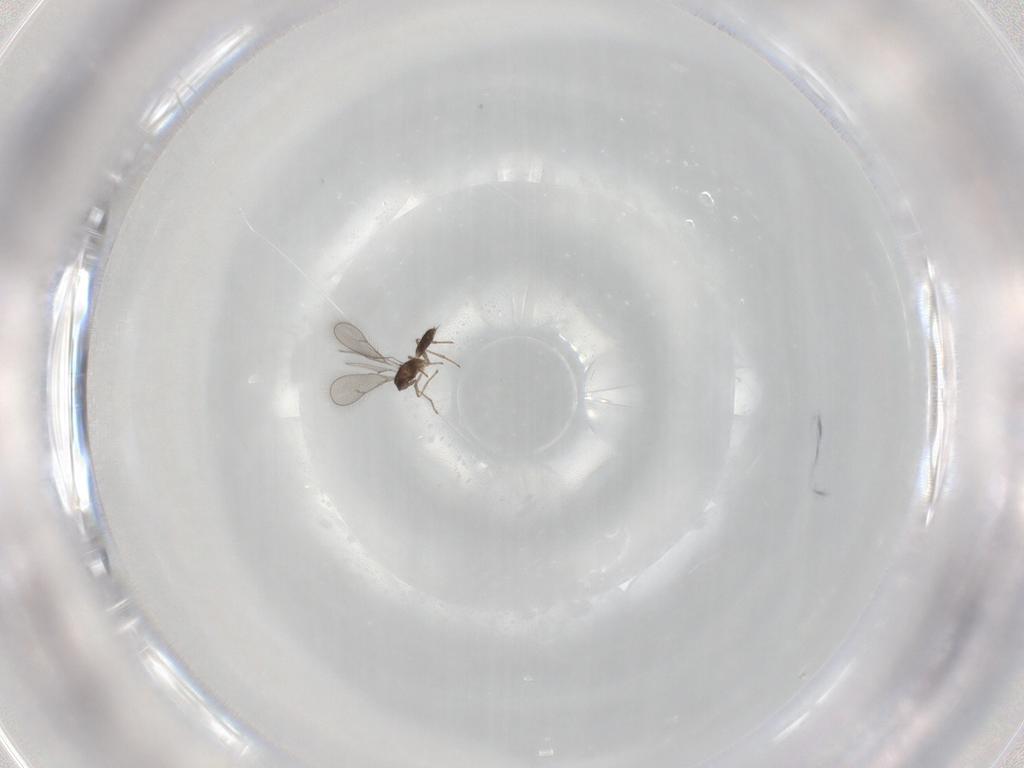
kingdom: Animalia
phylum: Arthropoda
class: Insecta
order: Hymenoptera
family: Eulophidae
